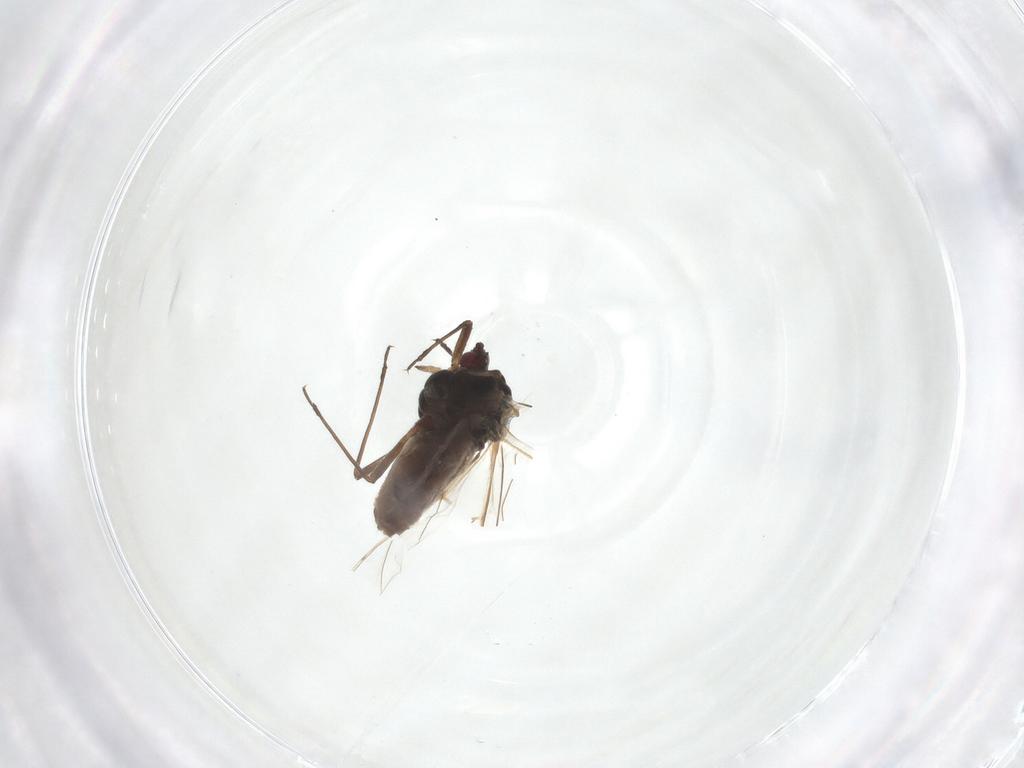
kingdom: Animalia
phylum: Arthropoda
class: Insecta
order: Hemiptera
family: Aphididae
